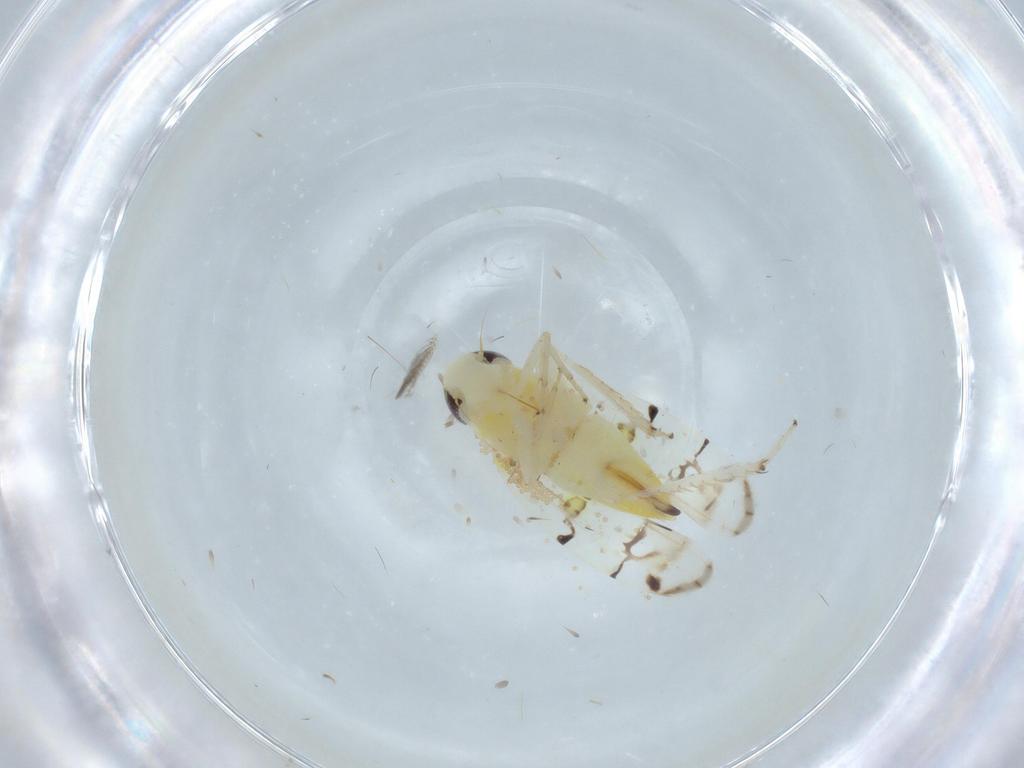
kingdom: Animalia
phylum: Arthropoda
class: Insecta
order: Hemiptera
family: Cicadellidae
